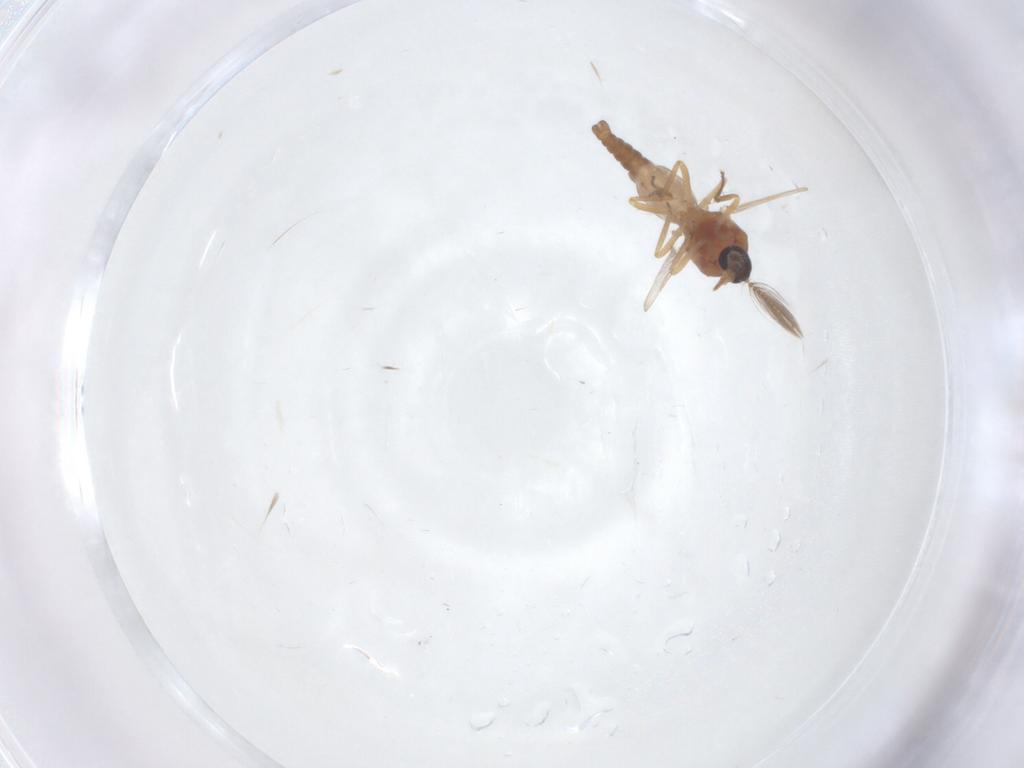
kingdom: Animalia
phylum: Arthropoda
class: Insecta
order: Diptera
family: Ceratopogonidae
